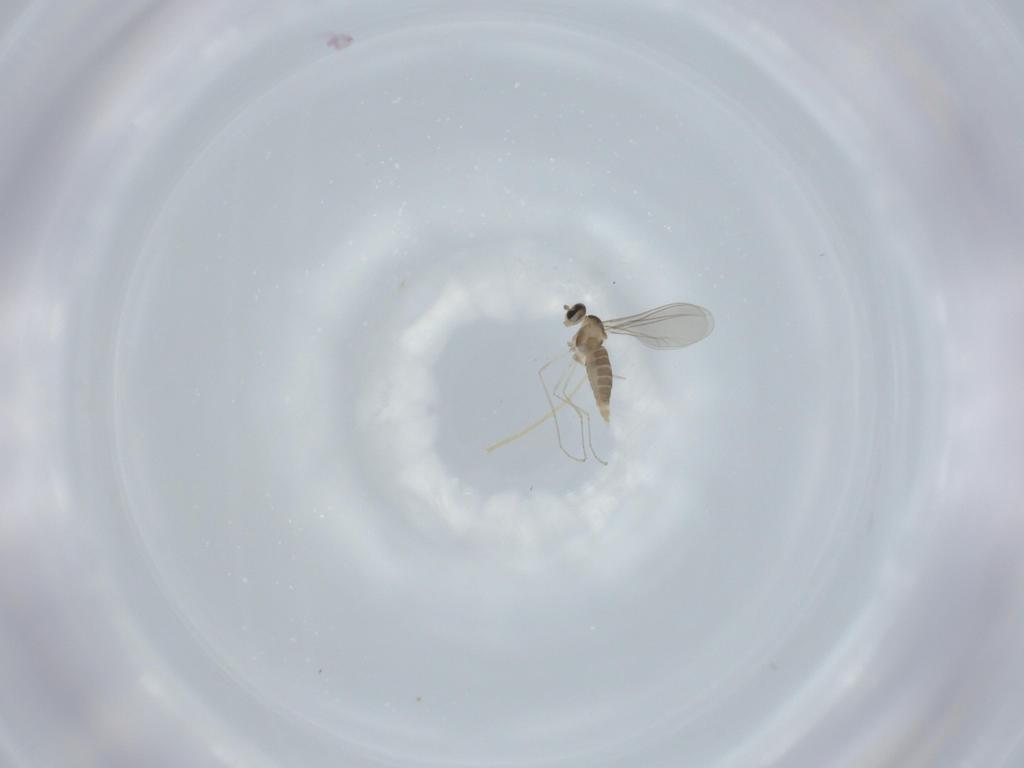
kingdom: Animalia
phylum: Arthropoda
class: Insecta
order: Diptera
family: Cecidomyiidae
